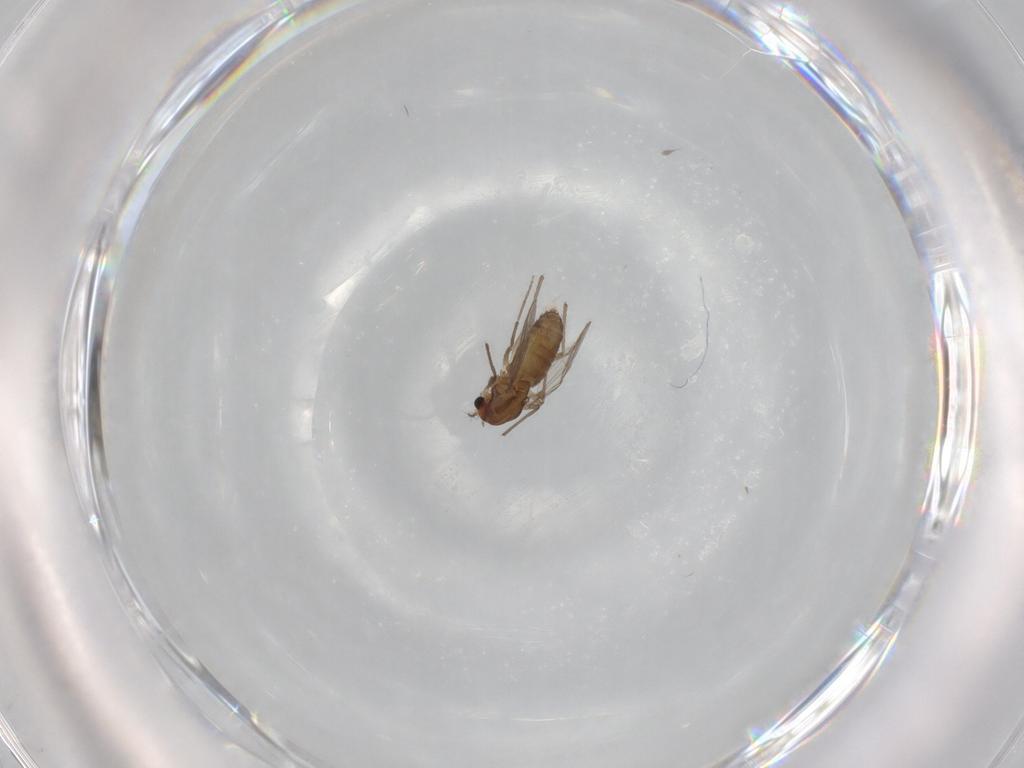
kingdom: Animalia
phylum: Arthropoda
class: Insecta
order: Diptera
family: Chironomidae
